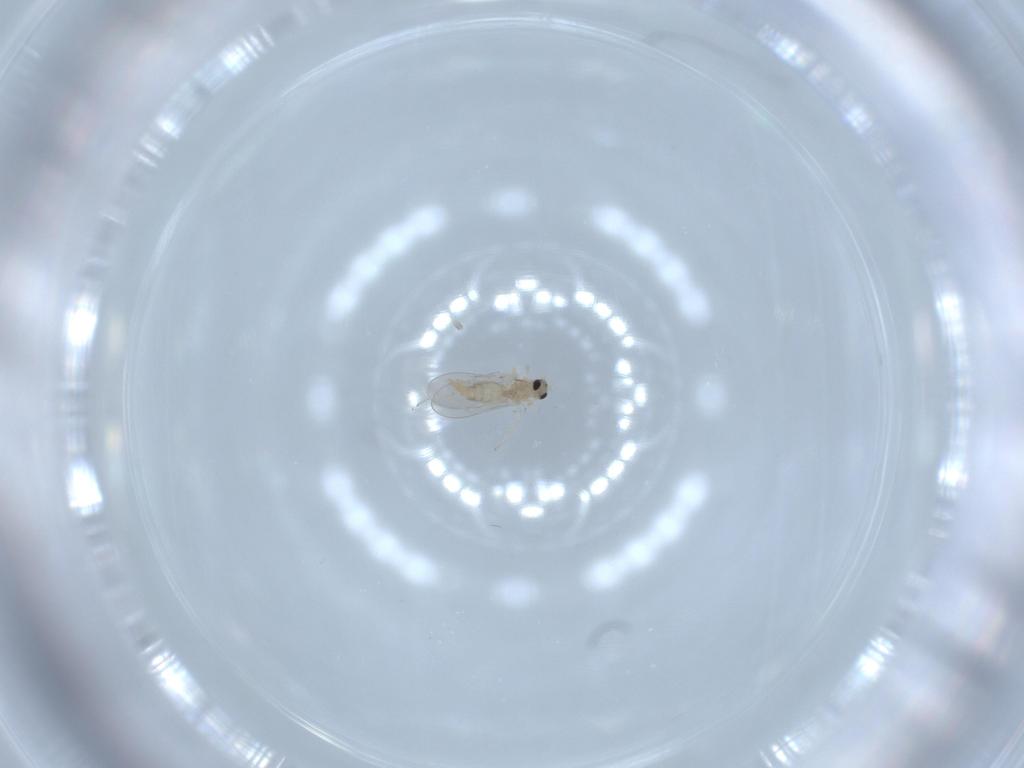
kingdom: Animalia
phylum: Arthropoda
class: Insecta
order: Diptera
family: Cecidomyiidae
